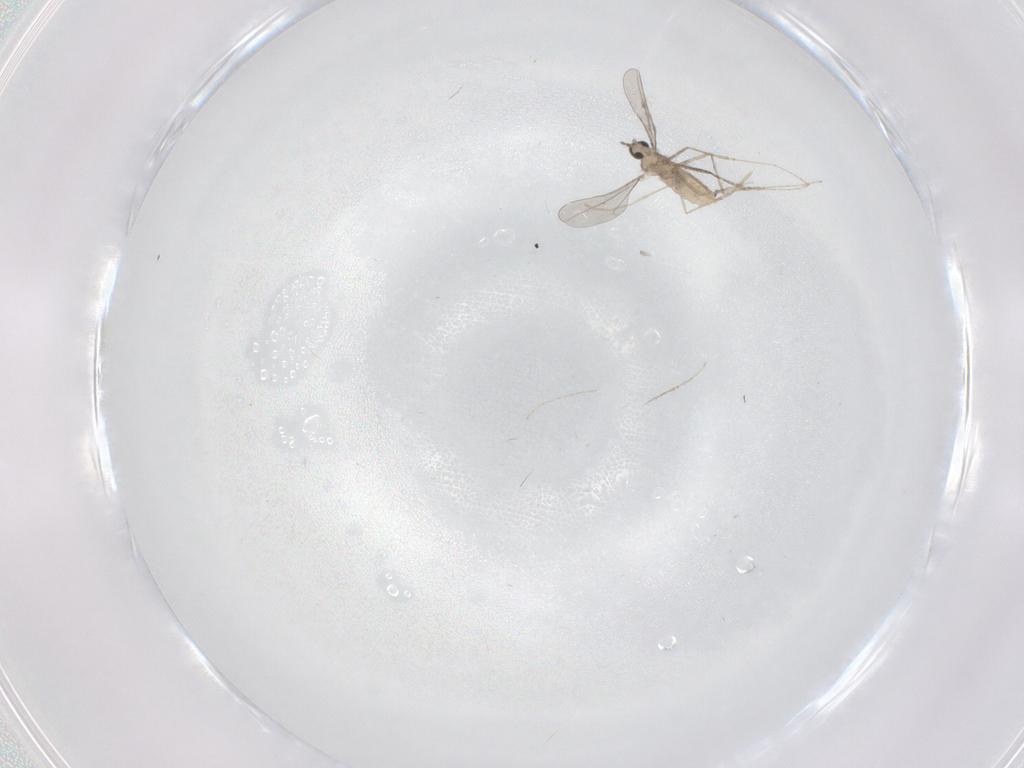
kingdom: Animalia
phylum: Arthropoda
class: Insecta
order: Diptera
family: Cecidomyiidae
